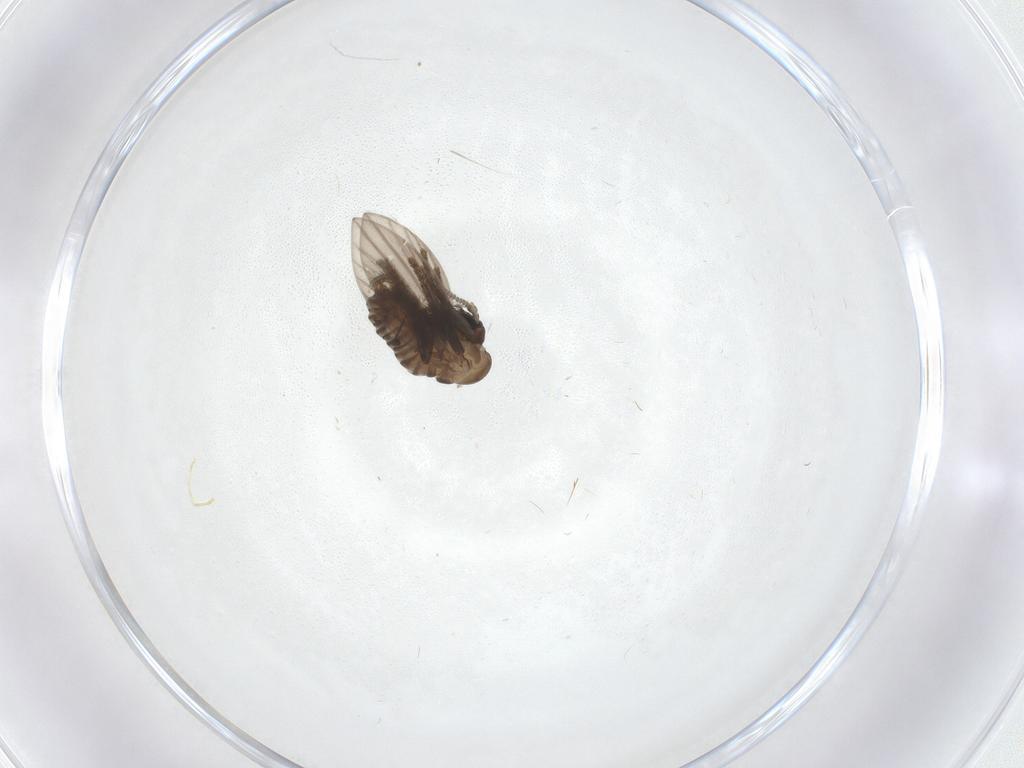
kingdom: Animalia
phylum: Arthropoda
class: Insecta
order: Diptera
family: Psychodidae
